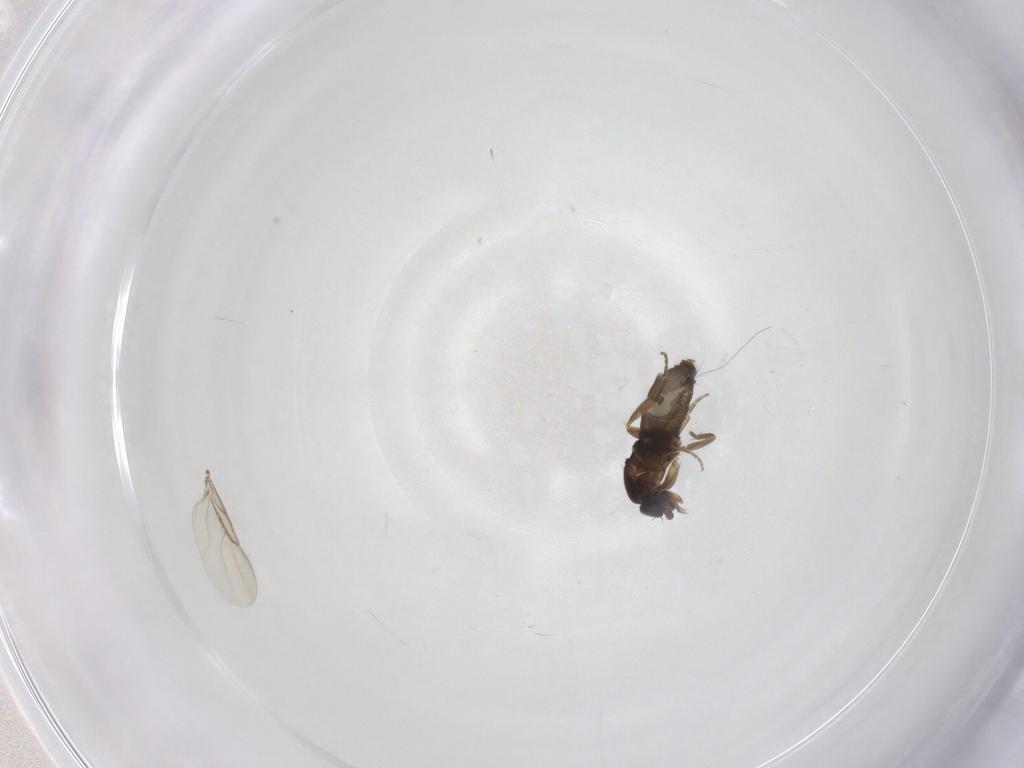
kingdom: Animalia
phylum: Arthropoda
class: Insecta
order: Diptera
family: Phoridae
